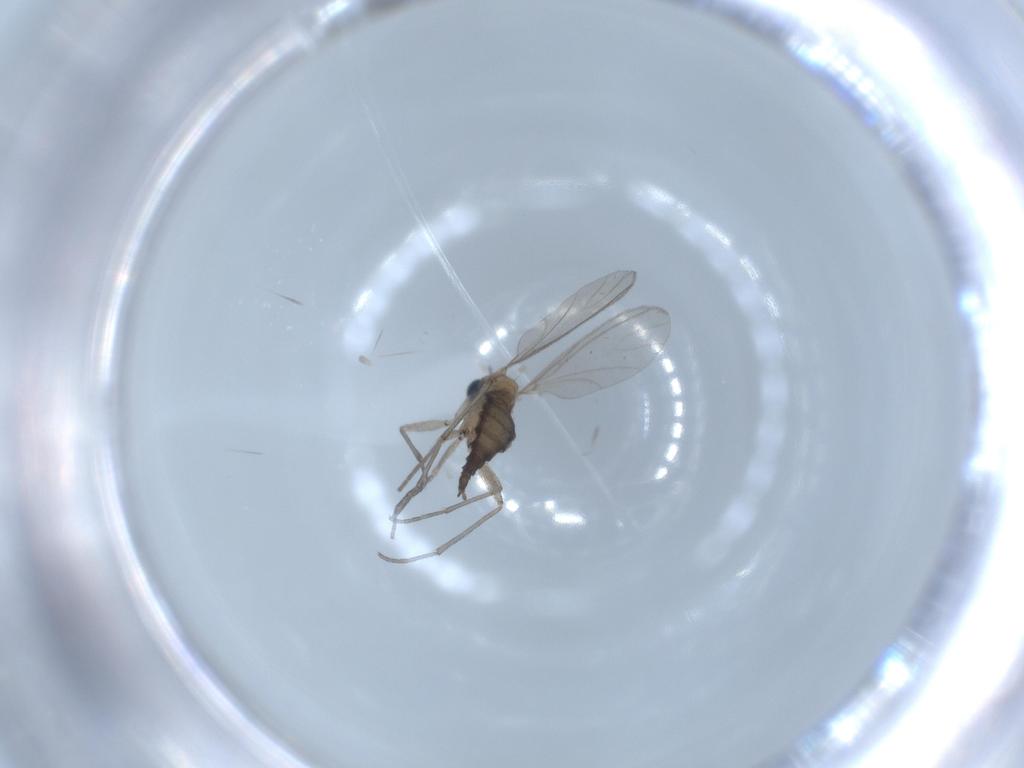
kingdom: Animalia
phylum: Arthropoda
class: Insecta
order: Diptera
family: Sciaridae
